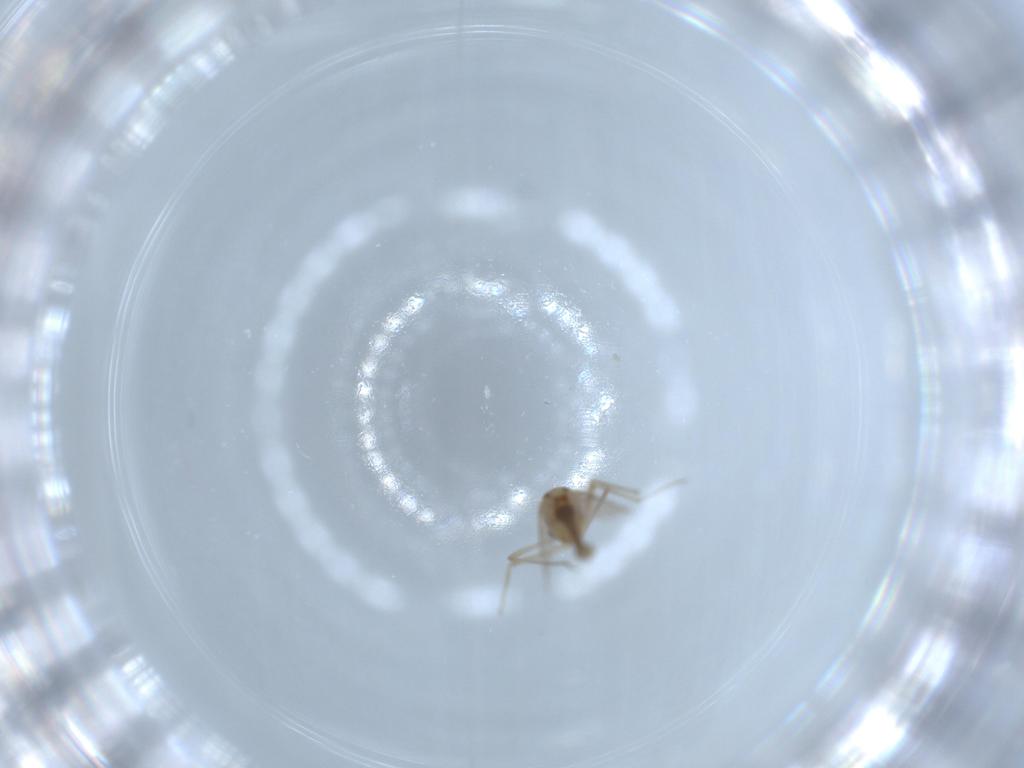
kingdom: Animalia
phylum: Arthropoda
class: Insecta
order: Diptera
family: Chironomidae
